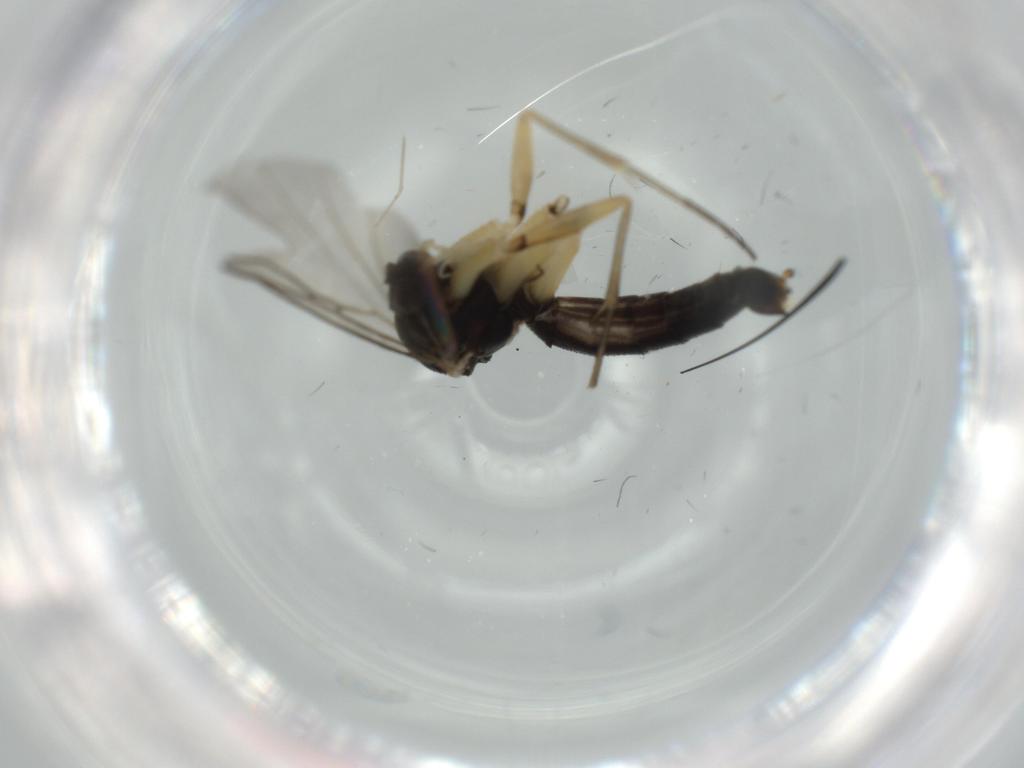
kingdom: Animalia
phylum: Arthropoda
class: Insecta
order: Diptera
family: Mycetophilidae
